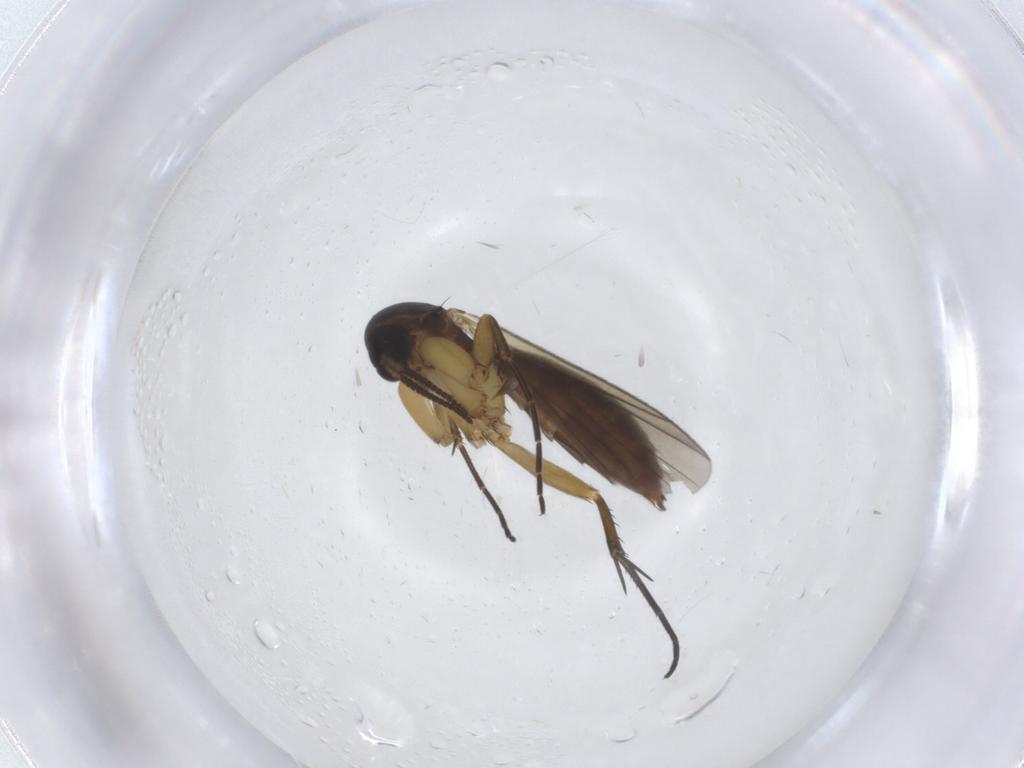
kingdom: Animalia
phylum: Arthropoda
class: Insecta
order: Diptera
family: Mycetophilidae
